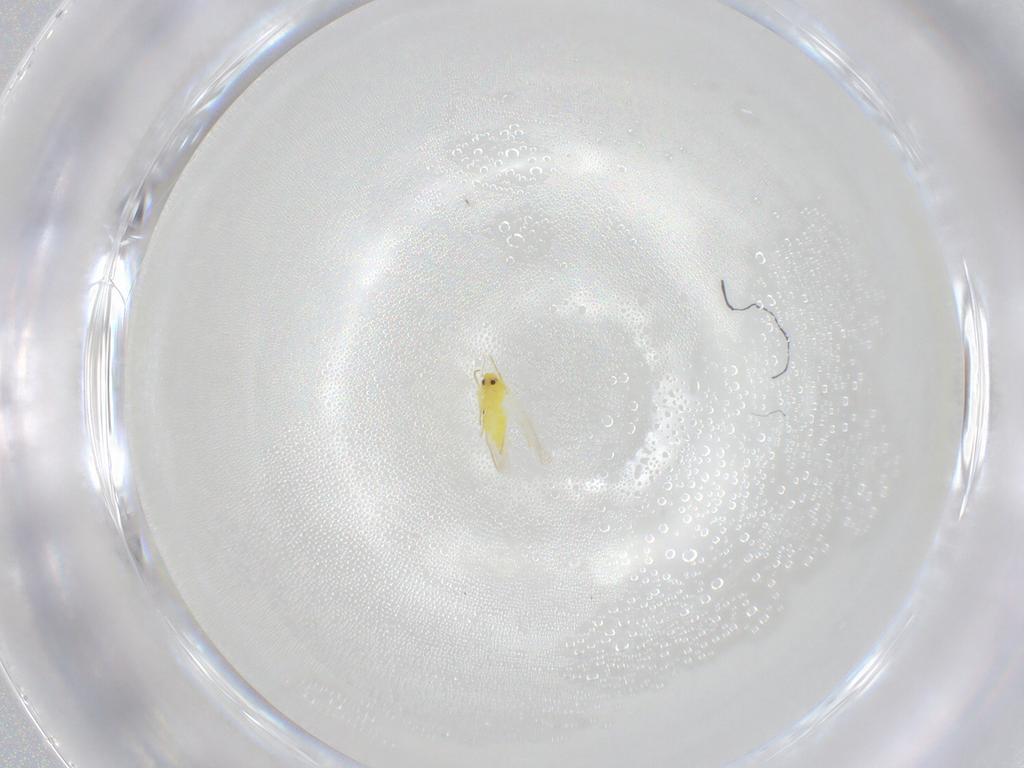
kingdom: Animalia
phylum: Arthropoda
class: Insecta
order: Hemiptera
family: Aleyrodidae
